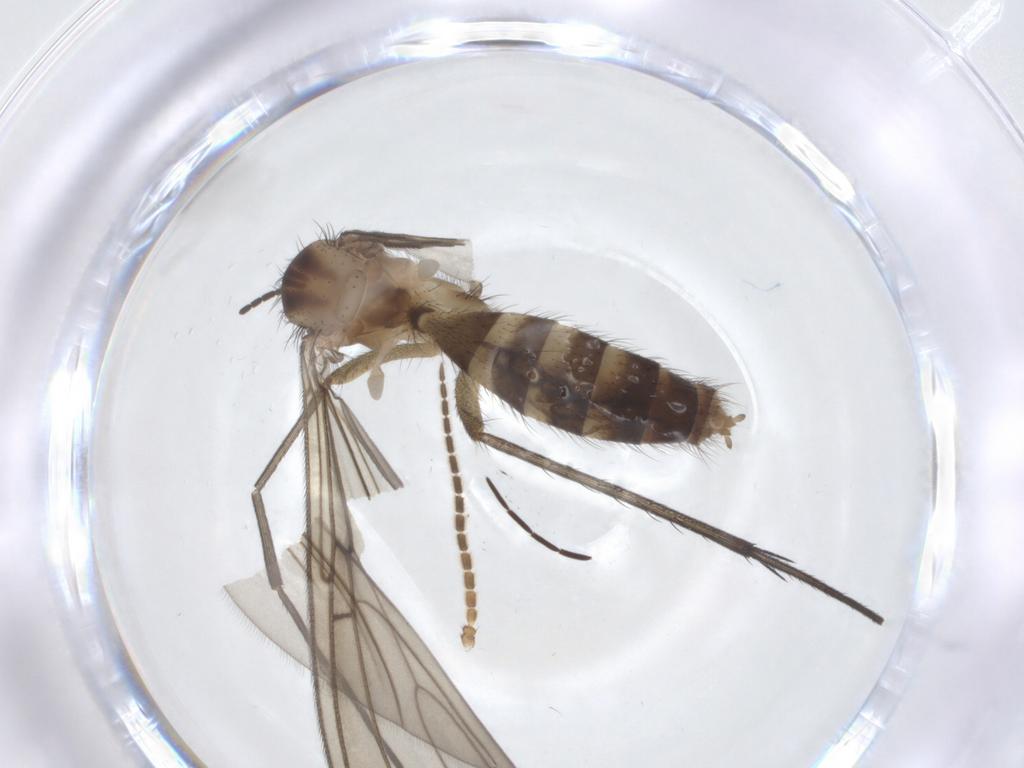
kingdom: Animalia
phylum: Arthropoda
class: Insecta
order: Diptera
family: Mycetophilidae
